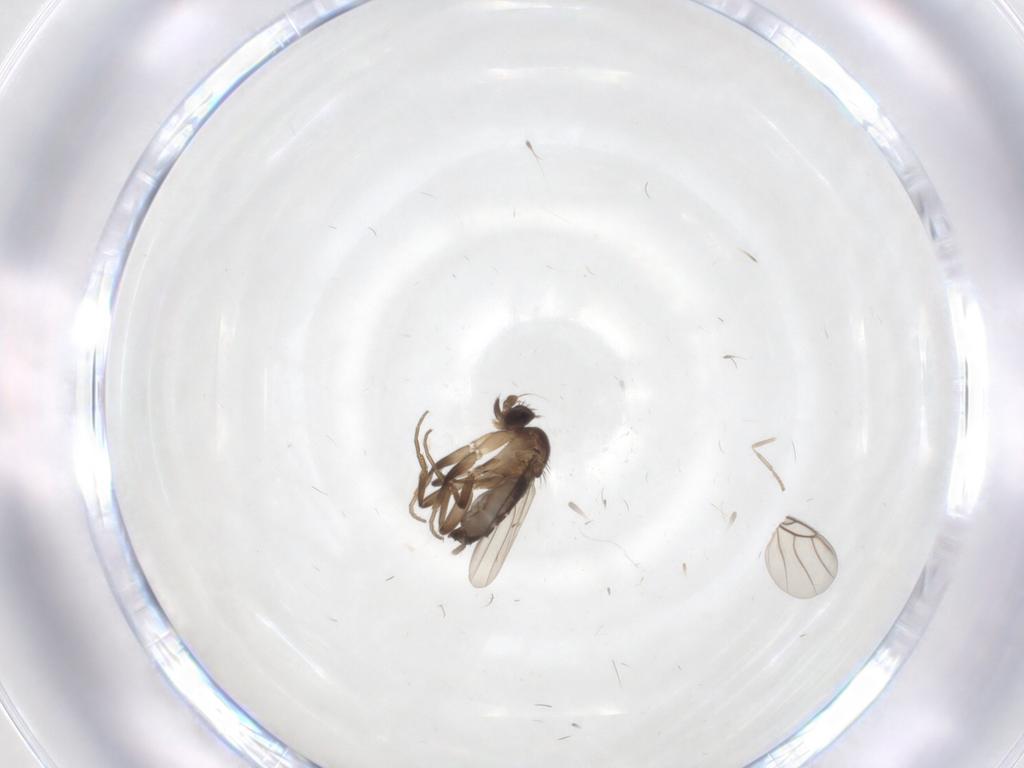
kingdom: Animalia
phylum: Arthropoda
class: Insecta
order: Diptera
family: Psychodidae
